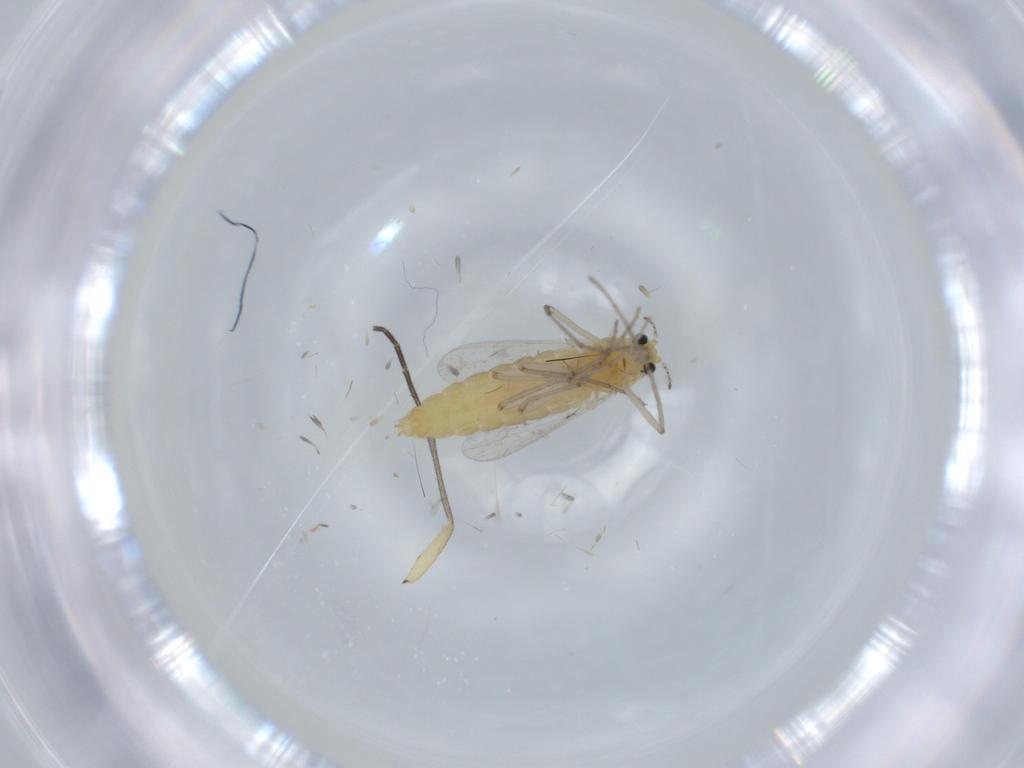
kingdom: Animalia
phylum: Arthropoda
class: Insecta
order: Diptera
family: Chironomidae
